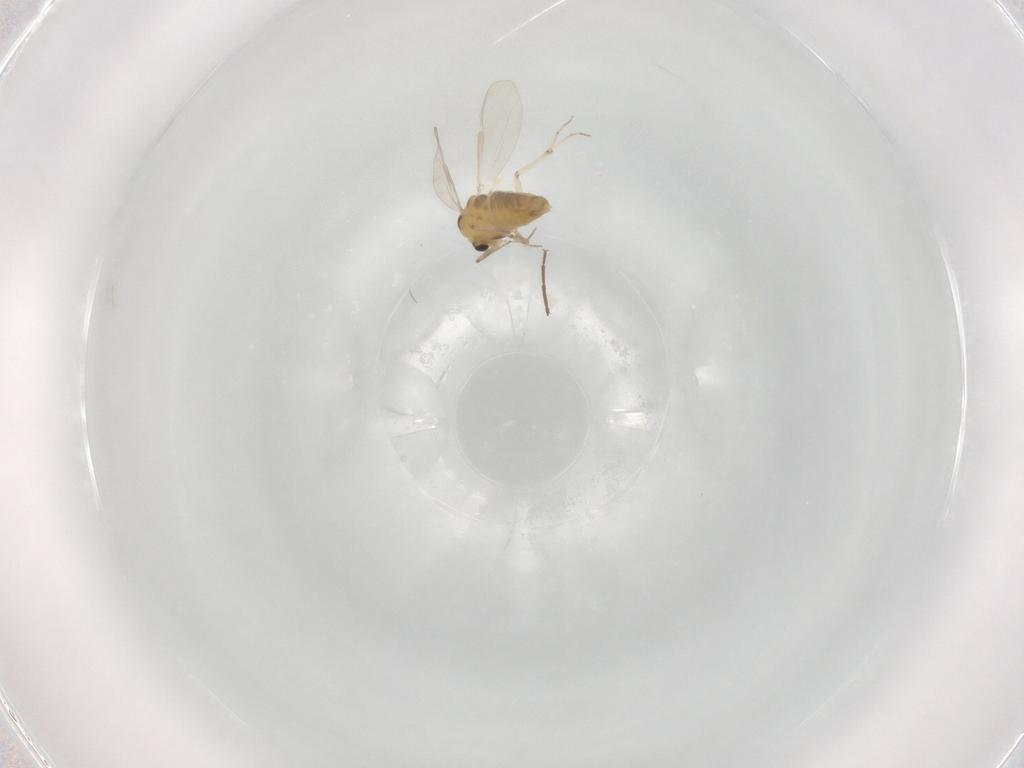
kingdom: Animalia
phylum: Arthropoda
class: Insecta
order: Diptera
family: Chironomidae
